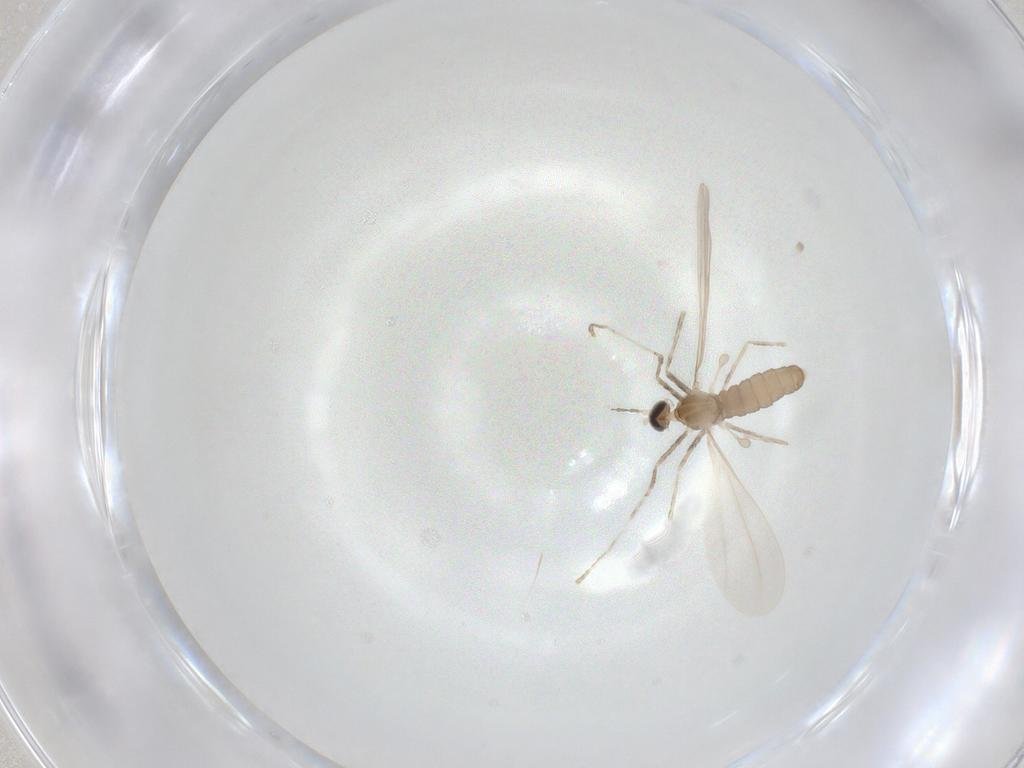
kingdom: Animalia
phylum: Arthropoda
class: Insecta
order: Diptera
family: Cecidomyiidae
